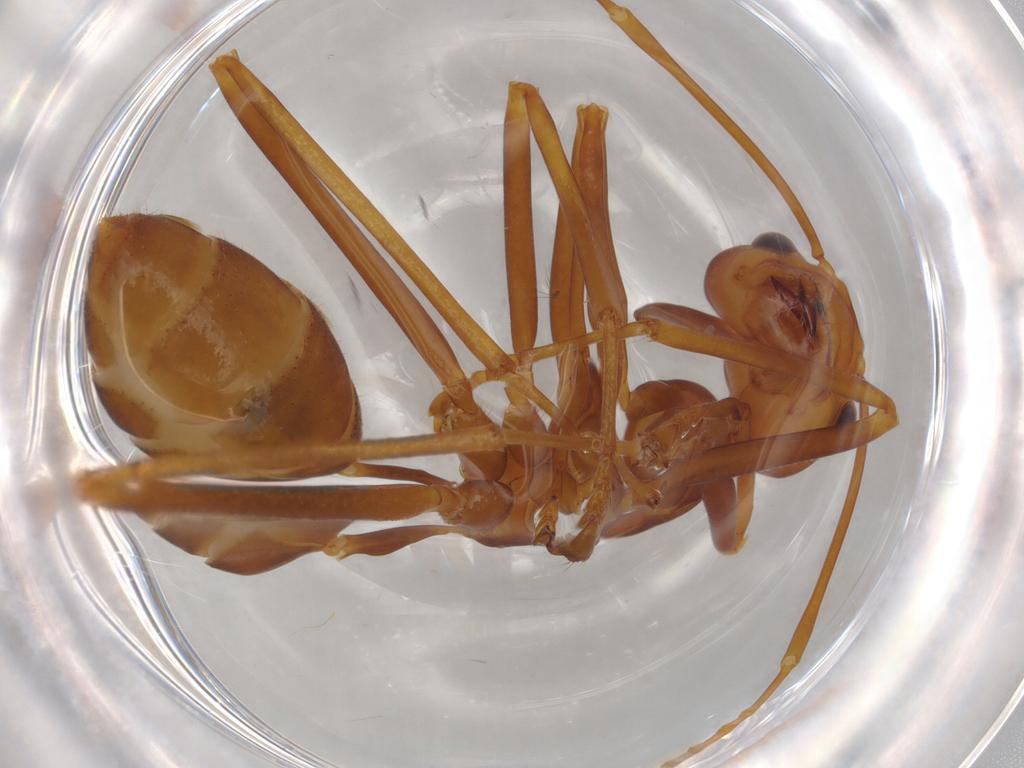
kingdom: Animalia
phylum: Arthropoda
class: Insecta
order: Hymenoptera
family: Formicidae
